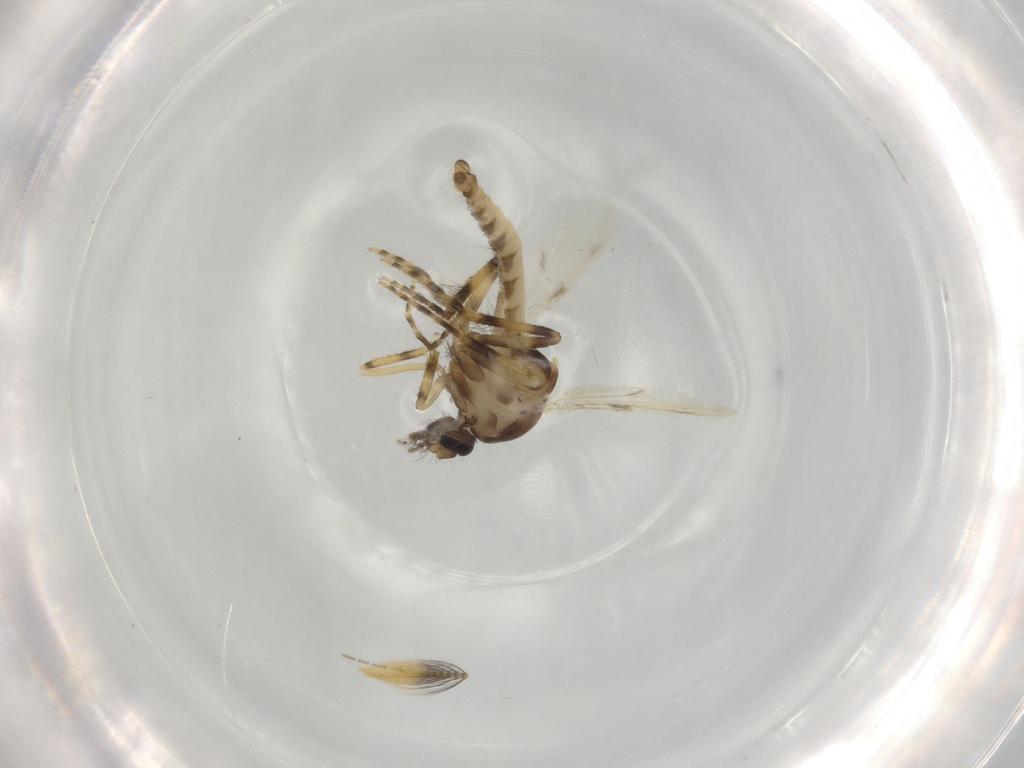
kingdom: Animalia
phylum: Arthropoda
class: Insecta
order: Diptera
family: Ceratopogonidae
